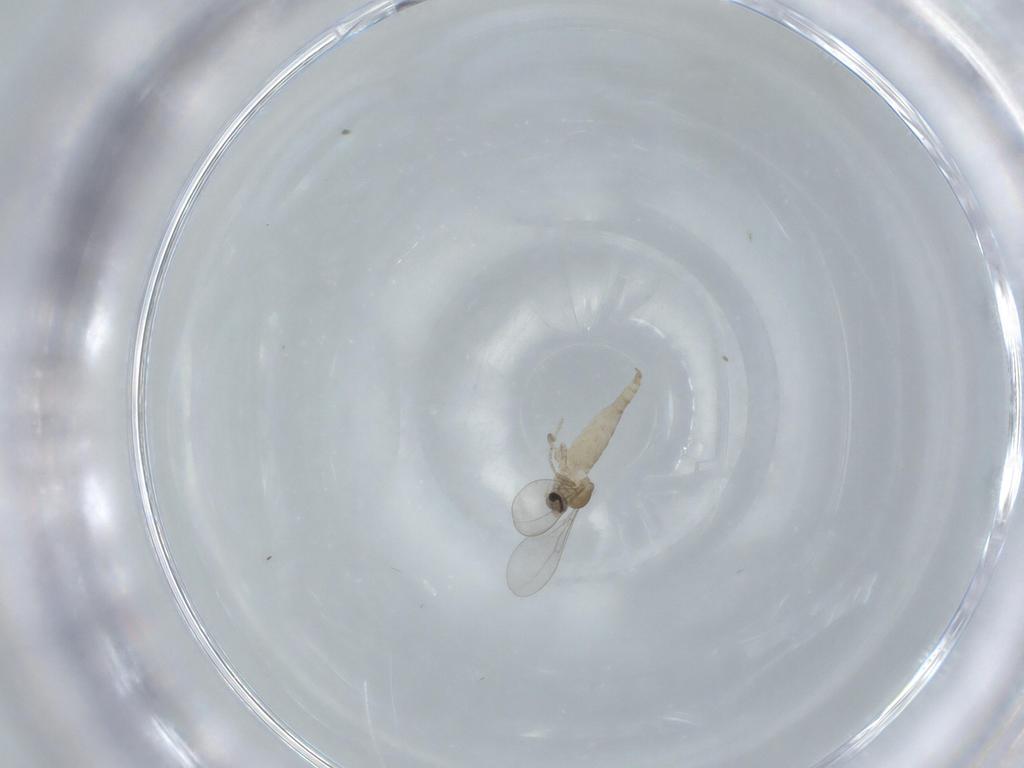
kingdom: Animalia
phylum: Arthropoda
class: Insecta
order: Diptera
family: Cecidomyiidae
